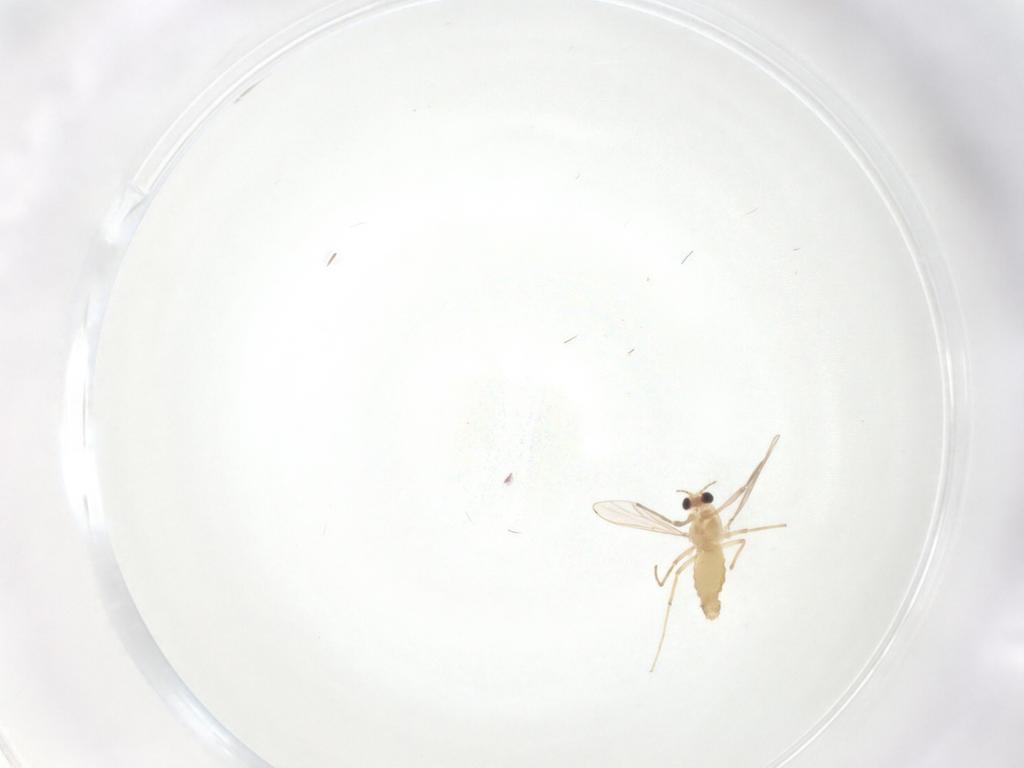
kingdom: Animalia
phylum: Arthropoda
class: Insecta
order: Diptera
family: Chironomidae
